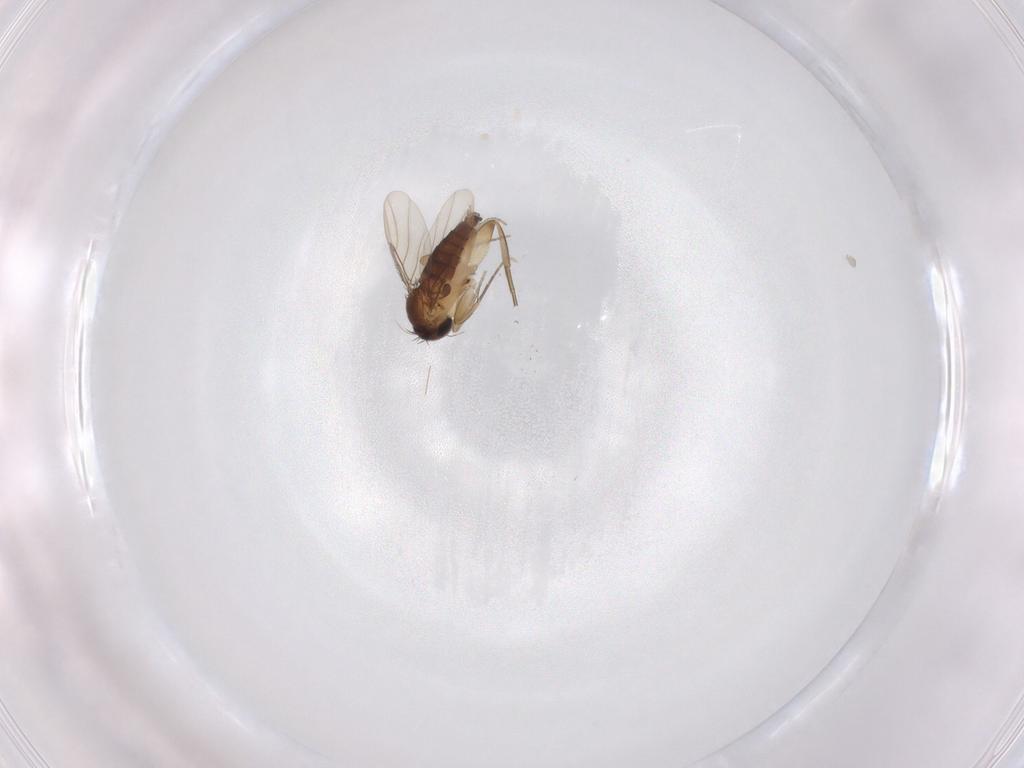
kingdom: Animalia
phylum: Arthropoda
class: Insecta
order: Diptera
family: Phoridae
